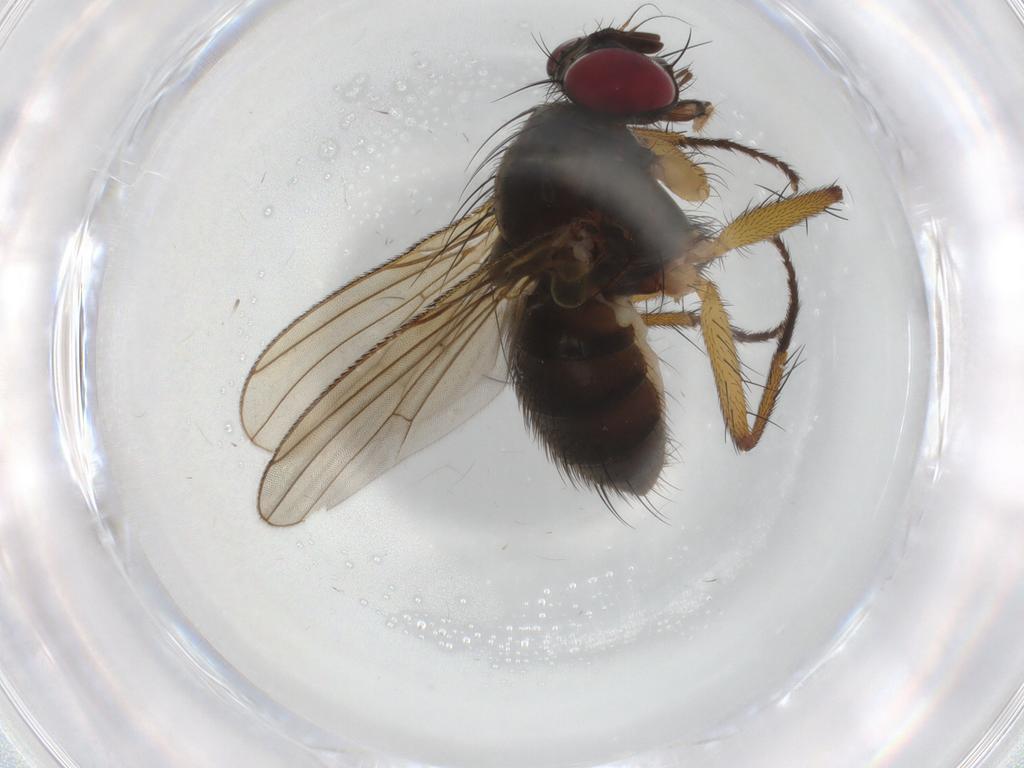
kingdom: Animalia
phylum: Arthropoda
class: Insecta
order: Diptera
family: Muscidae
